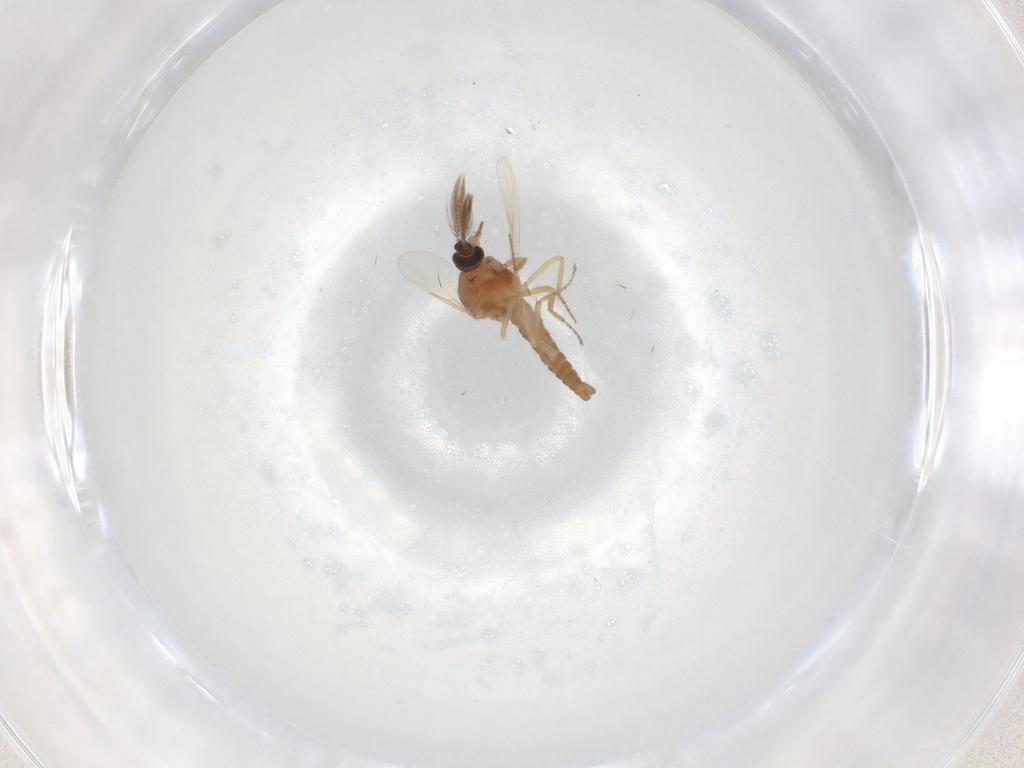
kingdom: Animalia
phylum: Arthropoda
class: Insecta
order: Diptera
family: Ceratopogonidae
